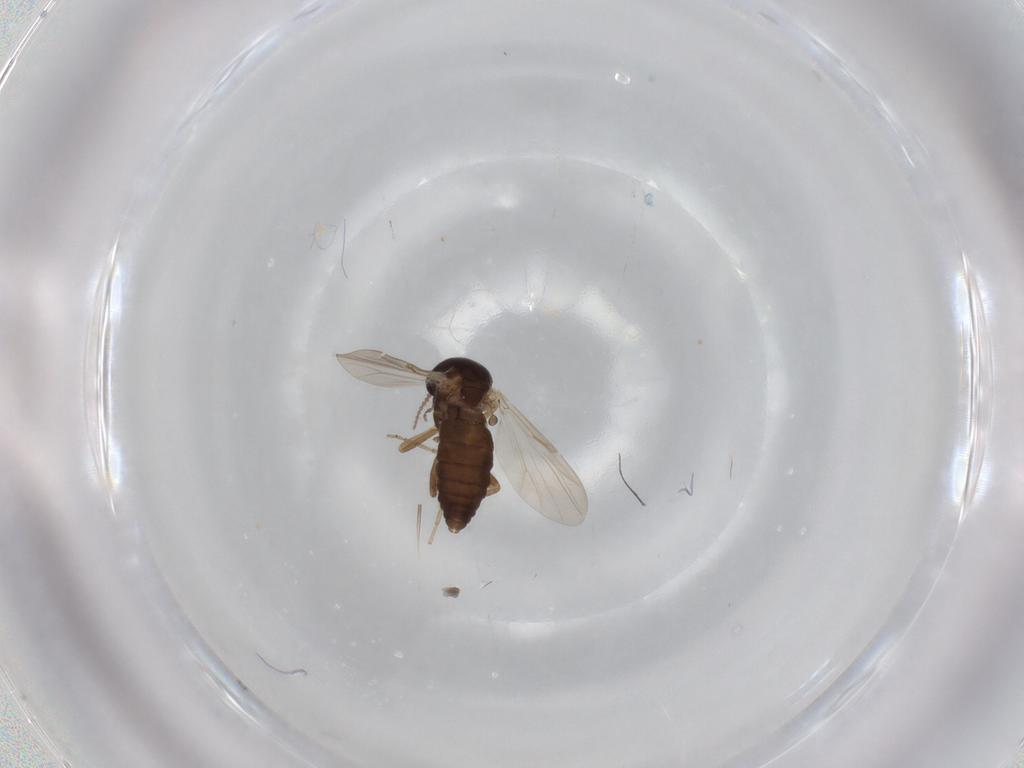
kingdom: Animalia
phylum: Arthropoda
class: Insecta
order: Diptera
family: Ceratopogonidae
